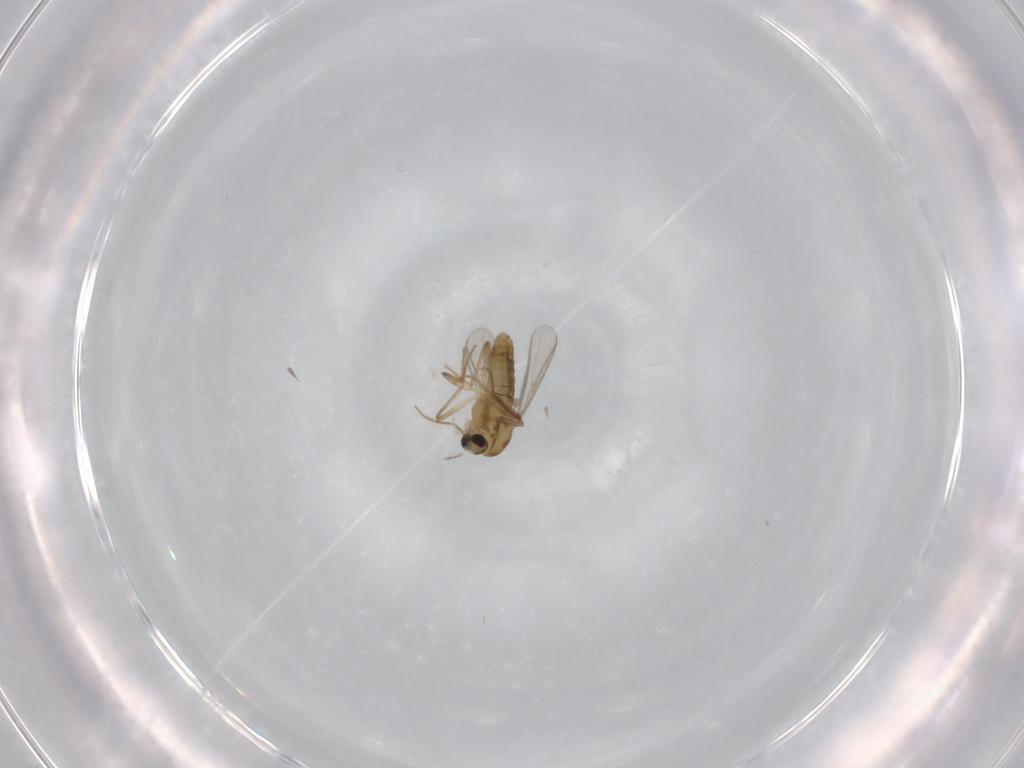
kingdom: Animalia
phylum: Arthropoda
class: Insecta
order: Diptera
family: Chironomidae
